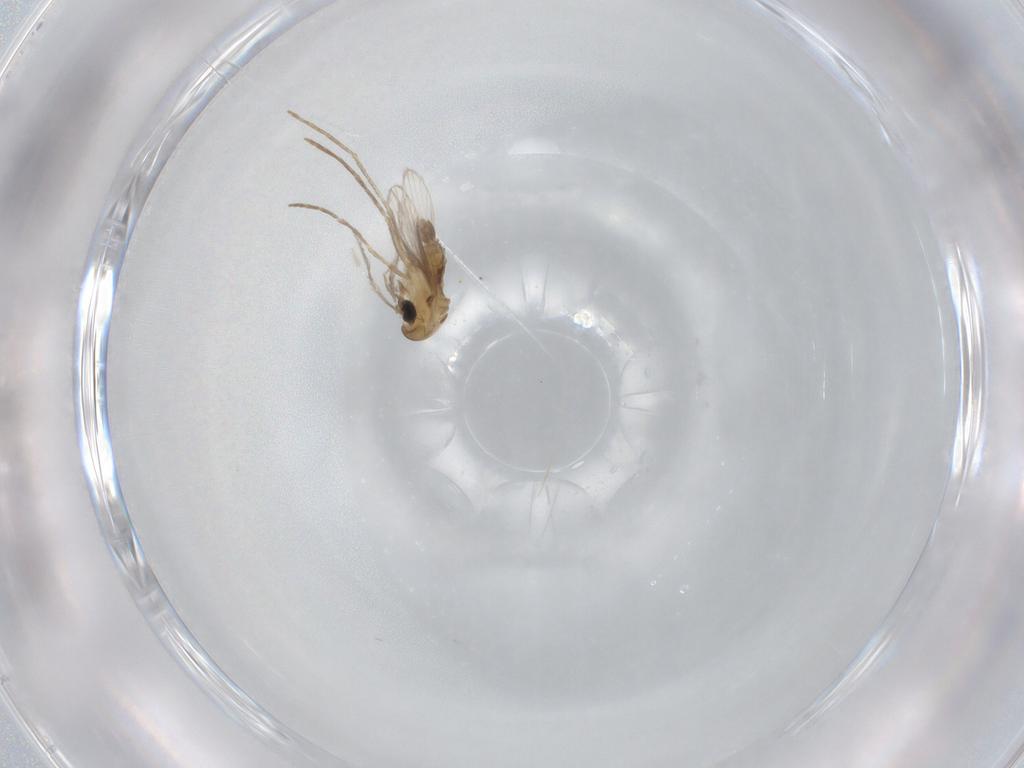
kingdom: Animalia
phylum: Arthropoda
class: Insecta
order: Diptera
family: Psychodidae
